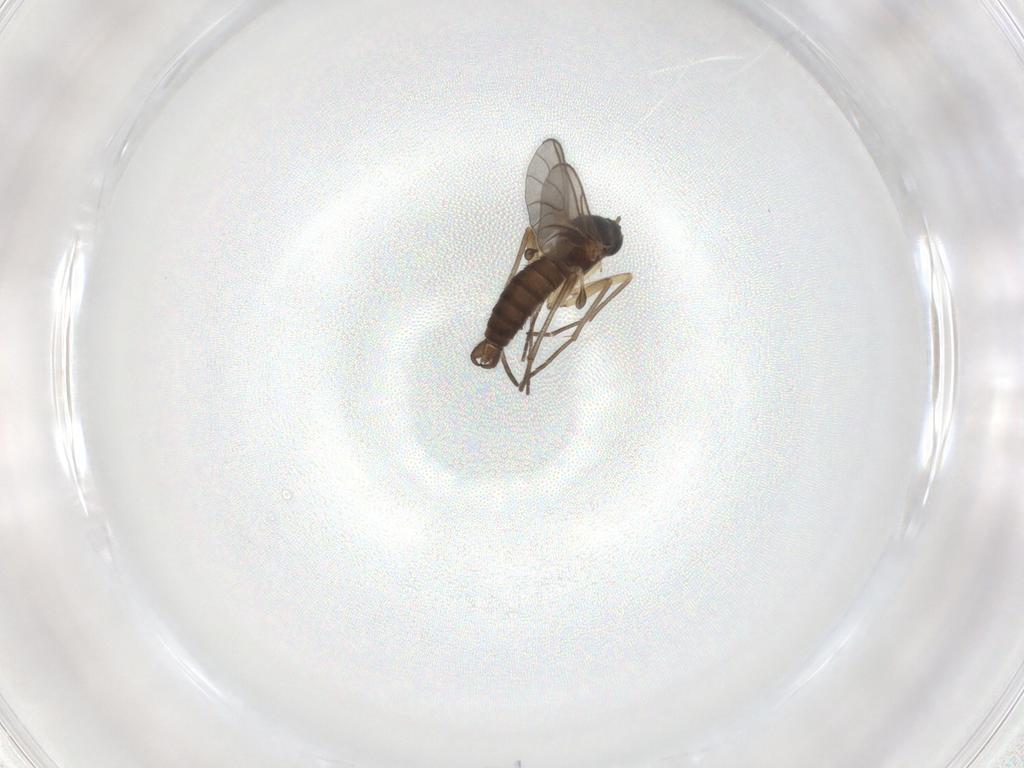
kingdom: Animalia
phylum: Arthropoda
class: Insecta
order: Diptera
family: Sciaridae
